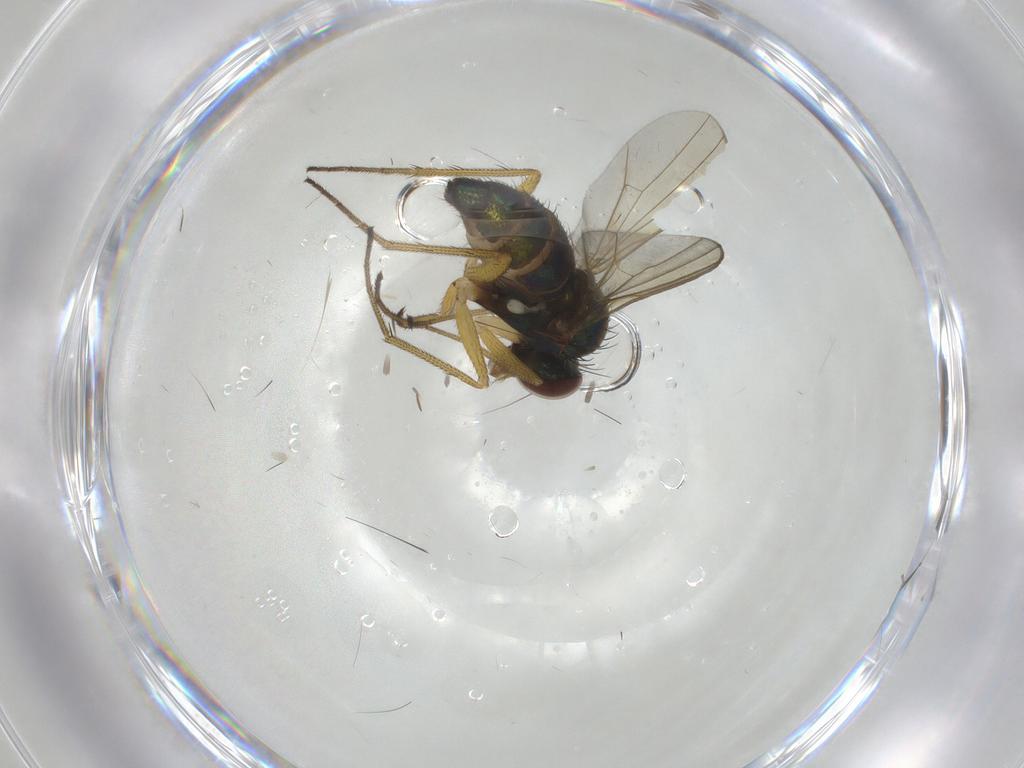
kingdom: Animalia
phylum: Arthropoda
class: Insecta
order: Diptera
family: Dolichopodidae
